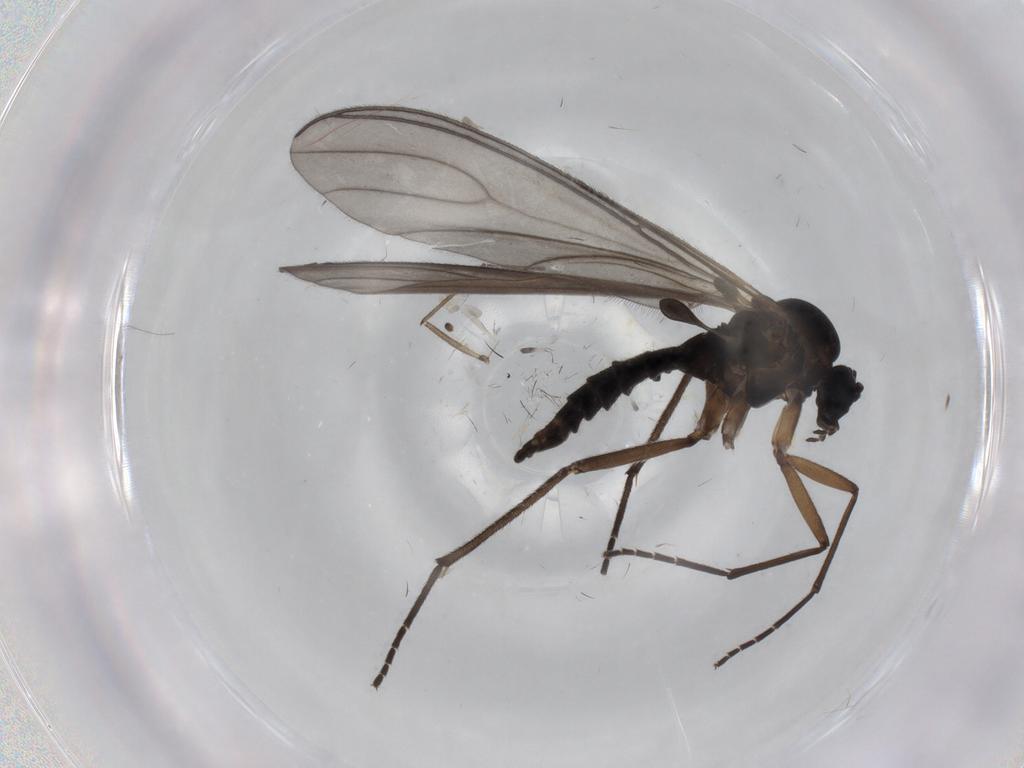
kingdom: Animalia
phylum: Arthropoda
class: Insecta
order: Diptera
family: Sciaridae
